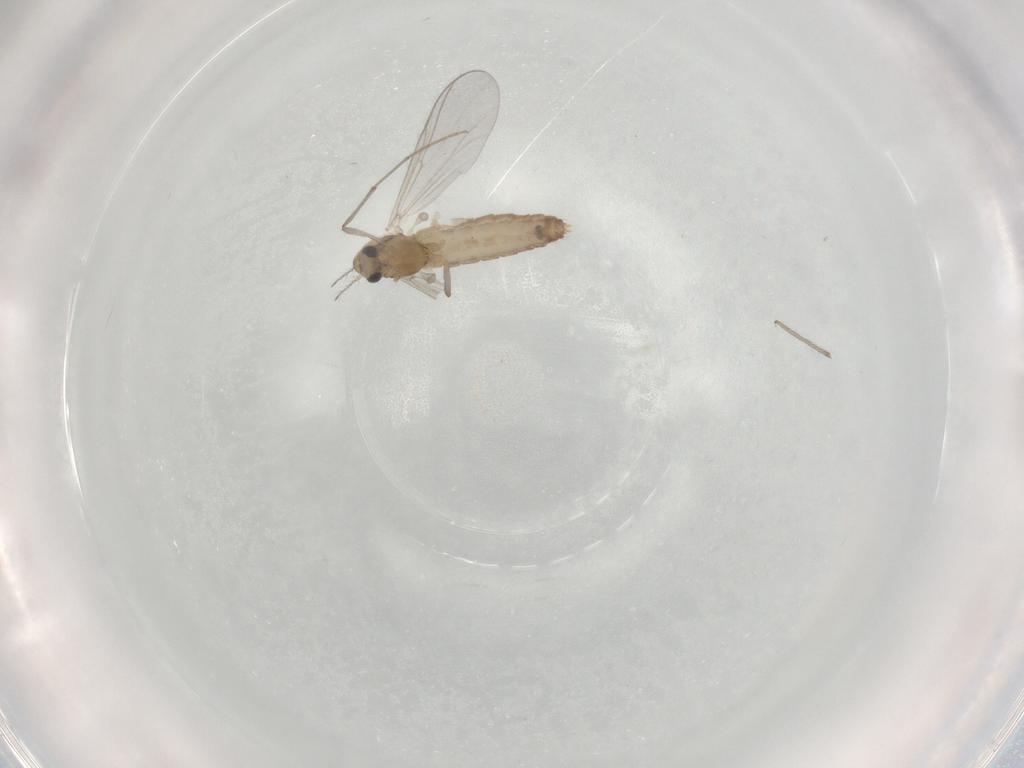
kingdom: Animalia
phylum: Arthropoda
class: Insecta
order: Diptera
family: Chironomidae
